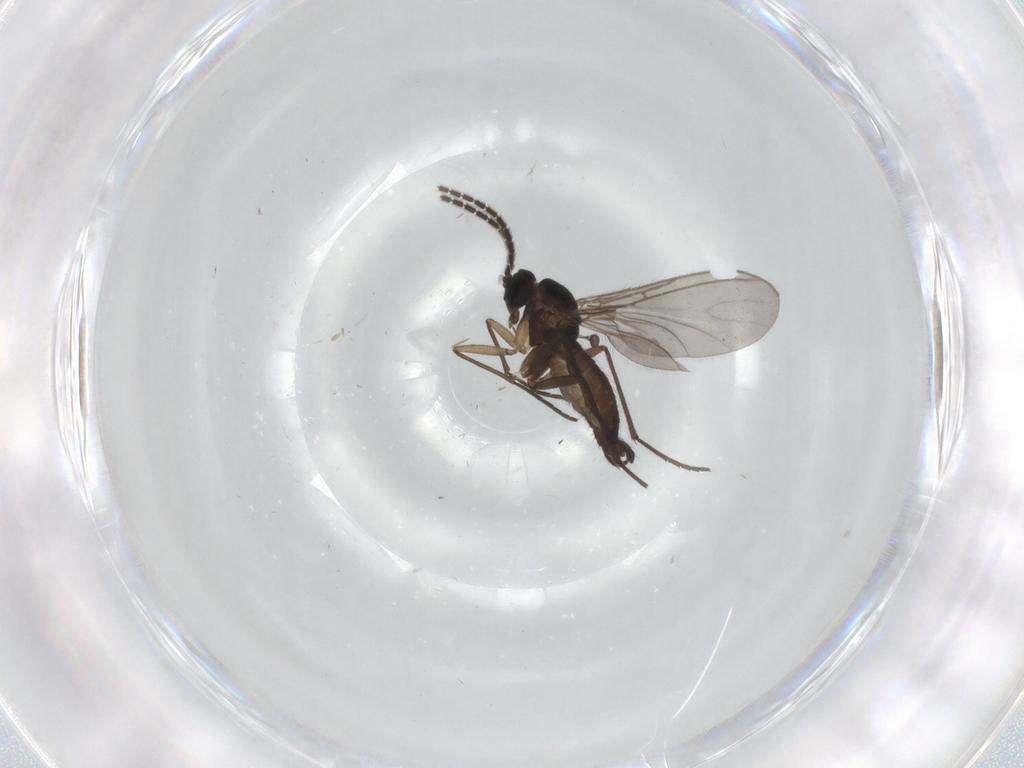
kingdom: Animalia
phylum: Arthropoda
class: Insecta
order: Diptera
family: Cecidomyiidae
